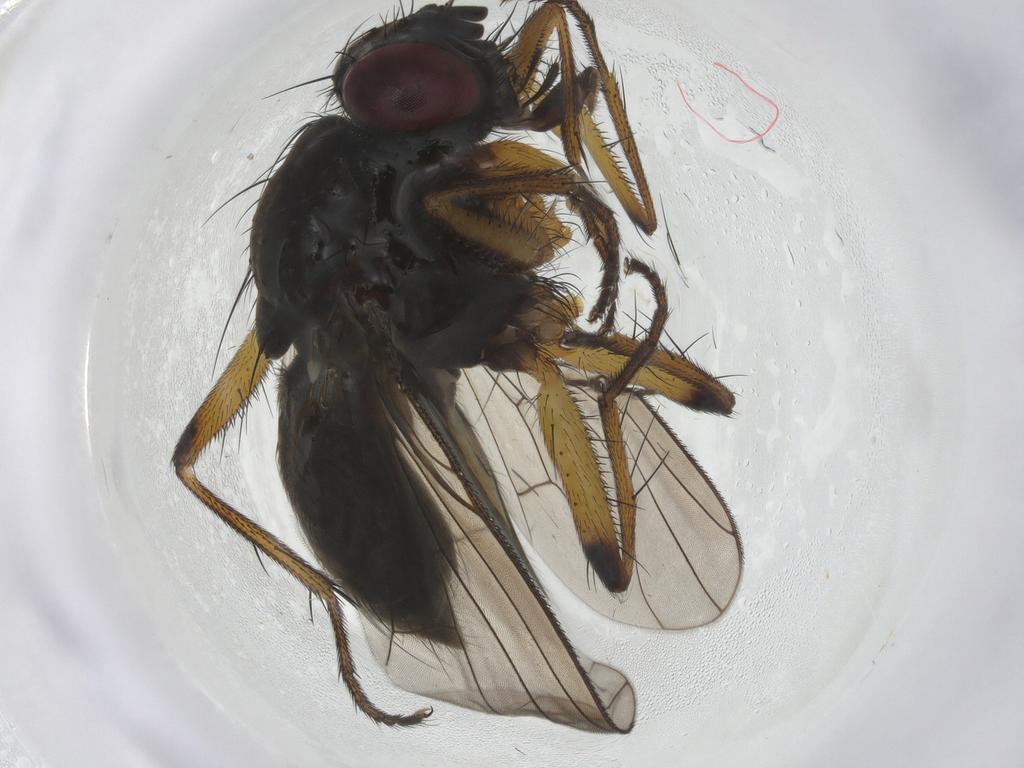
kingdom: Animalia
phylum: Arthropoda
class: Insecta
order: Diptera
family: Muscidae
